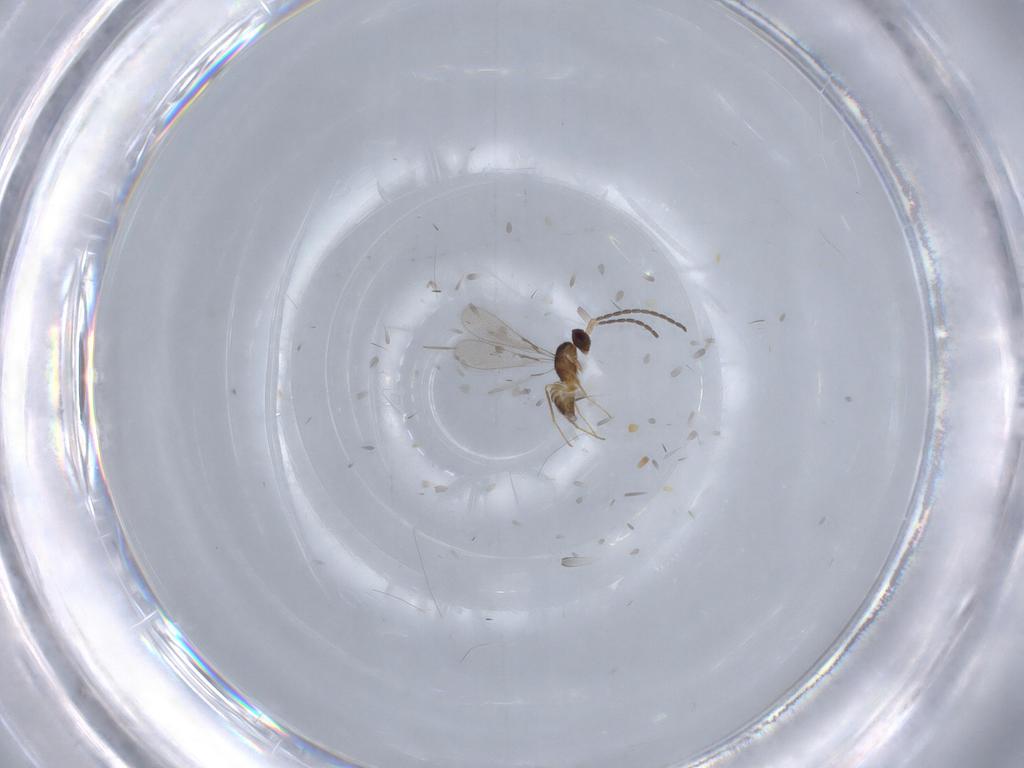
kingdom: Animalia
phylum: Arthropoda
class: Insecta
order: Hymenoptera
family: Mymaridae
